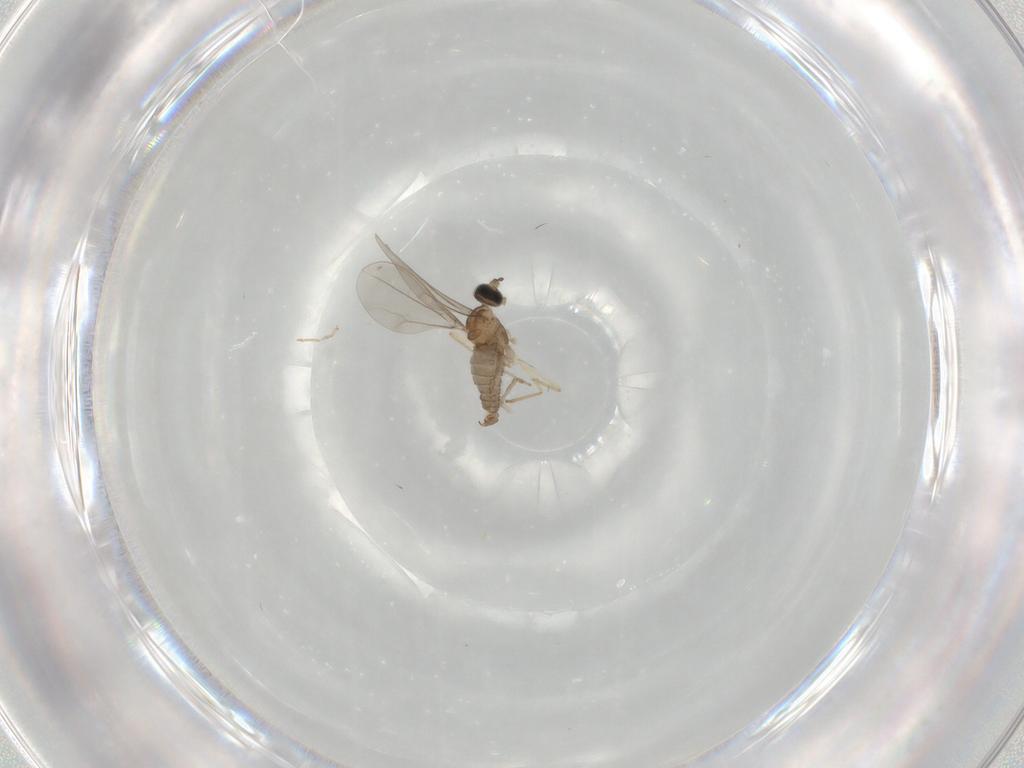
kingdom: Animalia
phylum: Arthropoda
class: Insecta
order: Diptera
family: Cecidomyiidae
